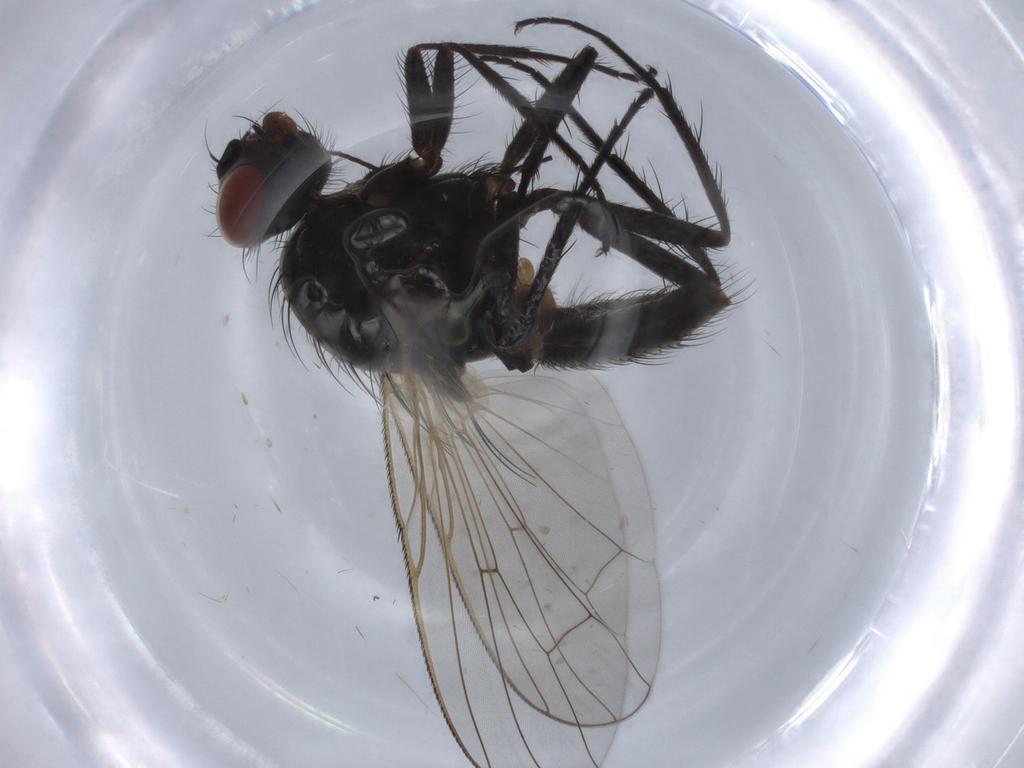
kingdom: Animalia
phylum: Arthropoda
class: Insecta
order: Diptera
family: Anthomyiidae
